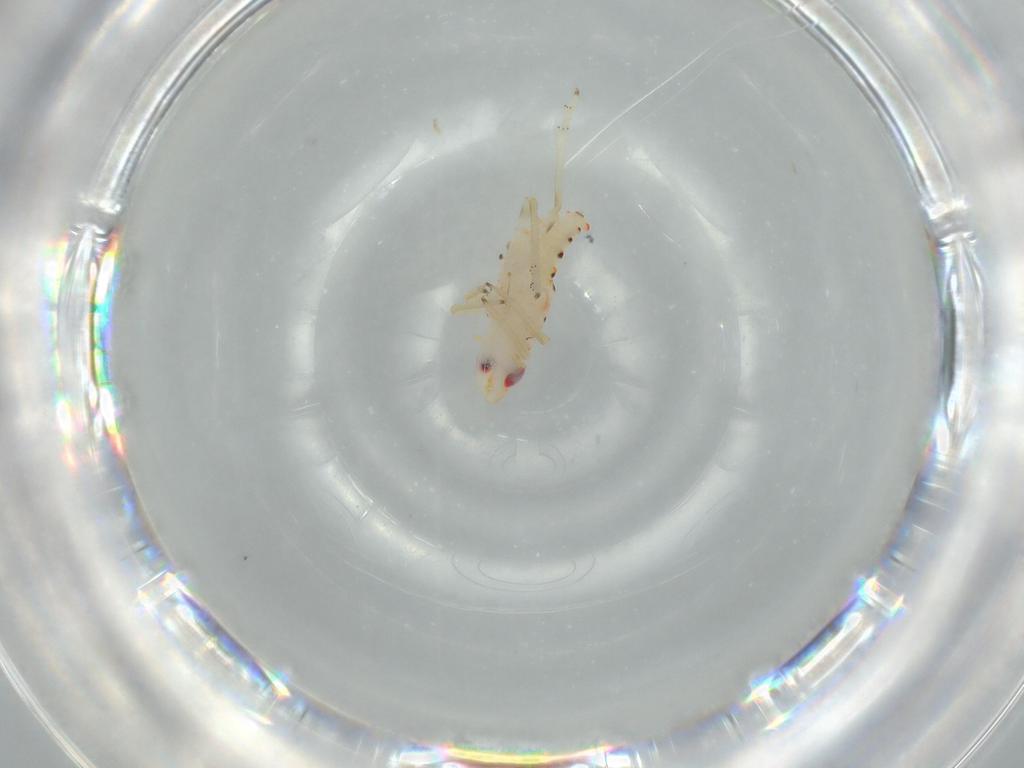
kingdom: Animalia
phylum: Arthropoda
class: Insecta
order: Hemiptera
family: Tropiduchidae
